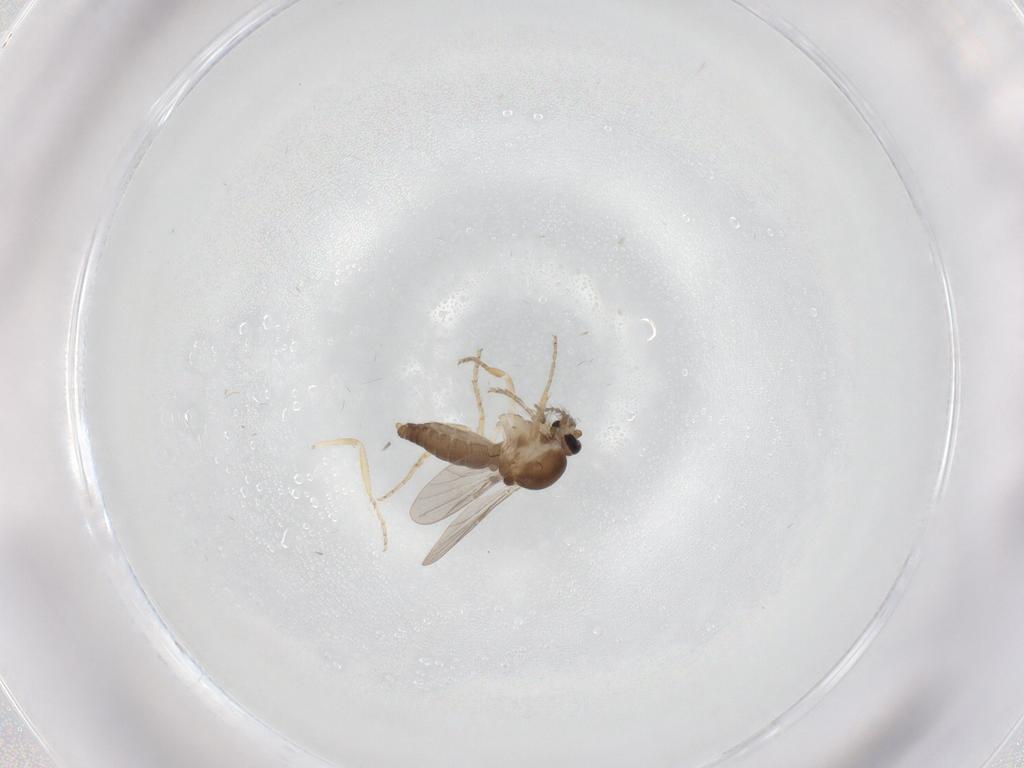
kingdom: Animalia
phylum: Arthropoda
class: Insecta
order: Diptera
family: Ceratopogonidae
